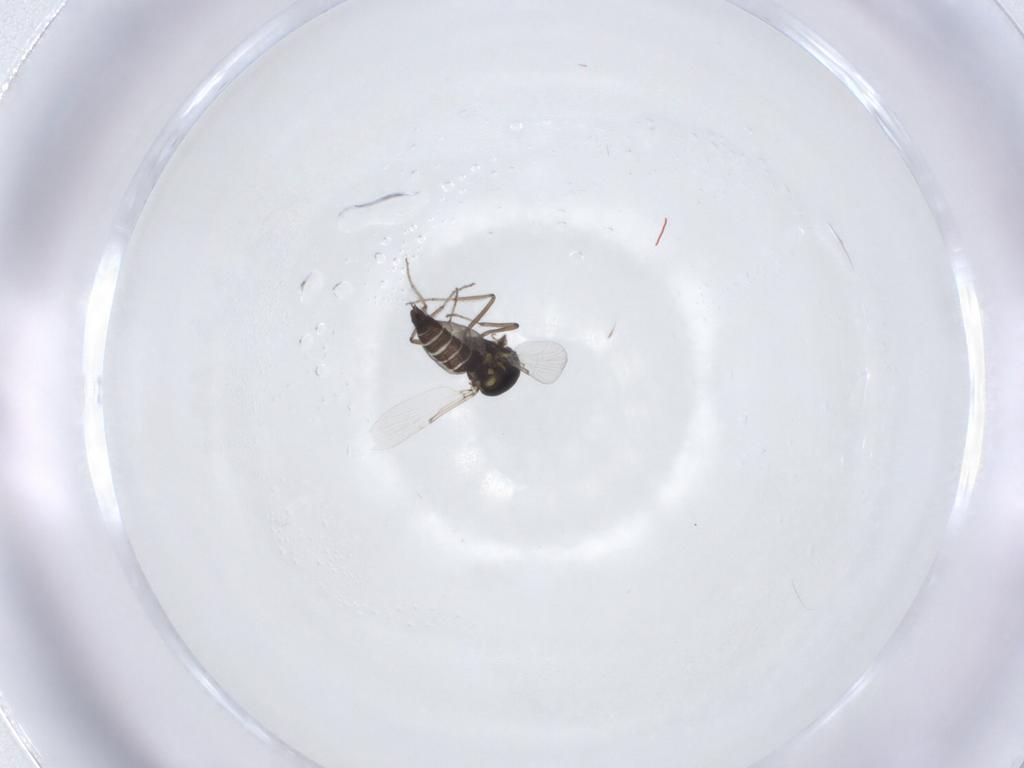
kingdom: Animalia
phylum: Arthropoda
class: Insecta
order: Diptera
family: Ceratopogonidae
